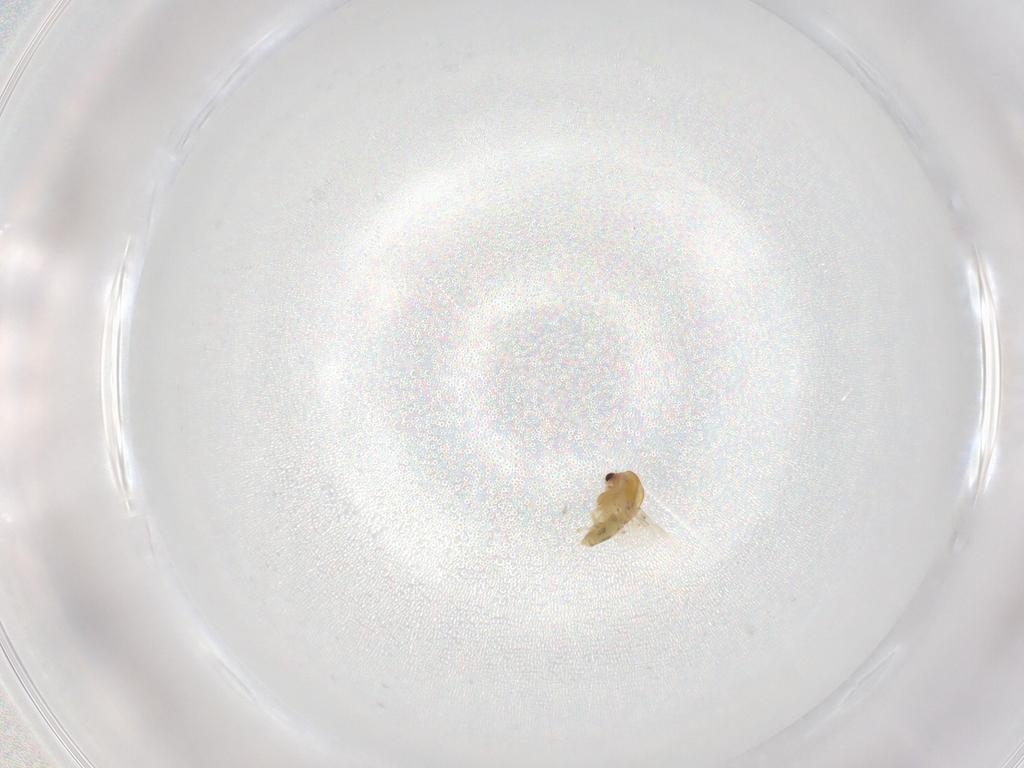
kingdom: Animalia
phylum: Arthropoda
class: Insecta
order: Diptera
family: Chironomidae
